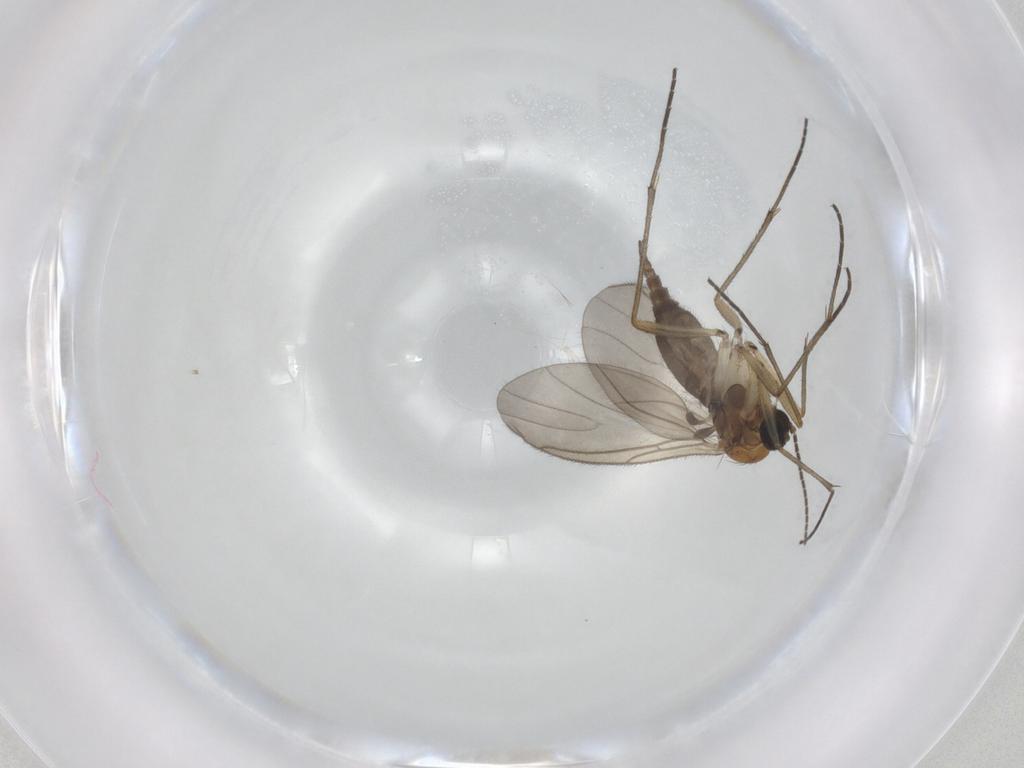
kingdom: Animalia
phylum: Arthropoda
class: Insecta
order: Diptera
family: Sciaridae
